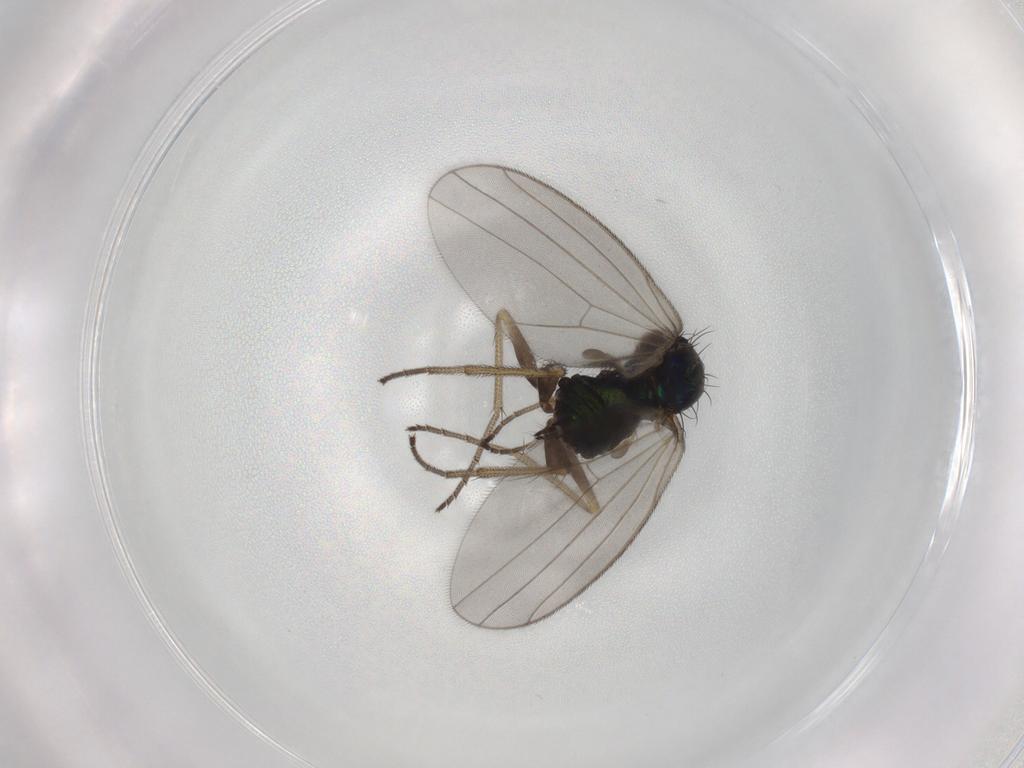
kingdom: Animalia
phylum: Arthropoda
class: Insecta
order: Diptera
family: Dolichopodidae
